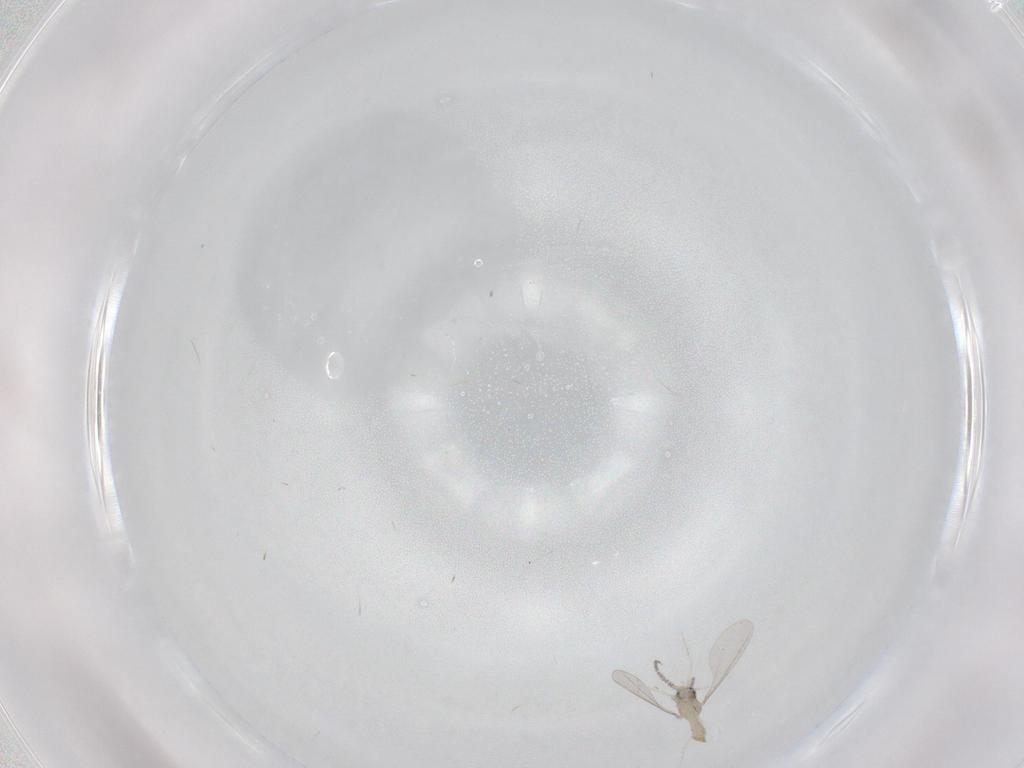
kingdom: Animalia
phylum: Arthropoda
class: Insecta
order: Diptera
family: Cecidomyiidae
